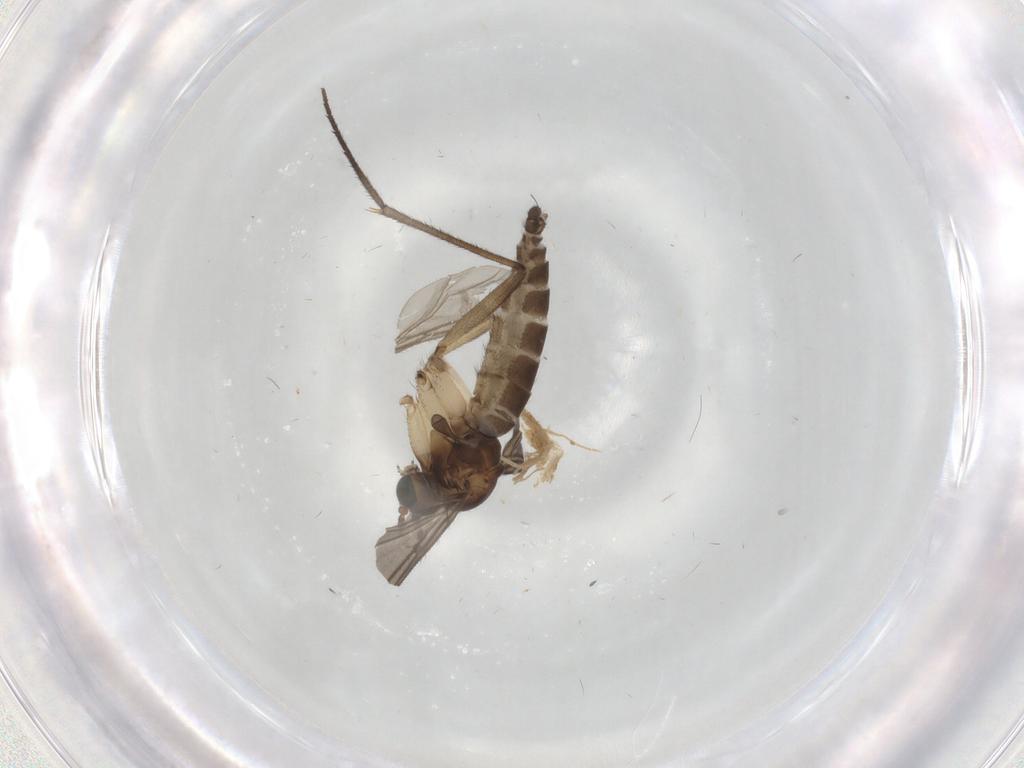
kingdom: Animalia
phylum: Arthropoda
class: Insecta
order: Diptera
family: Sciaridae
